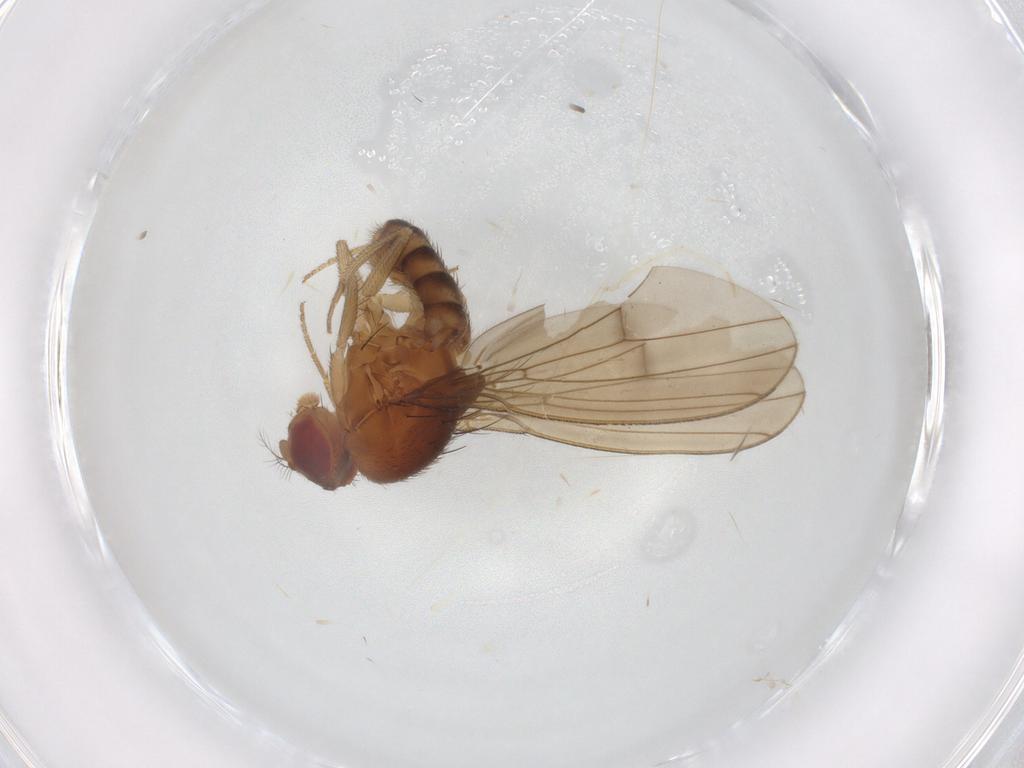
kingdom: Animalia
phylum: Arthropoda
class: Insecta
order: Diptera
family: Drosophilidae
